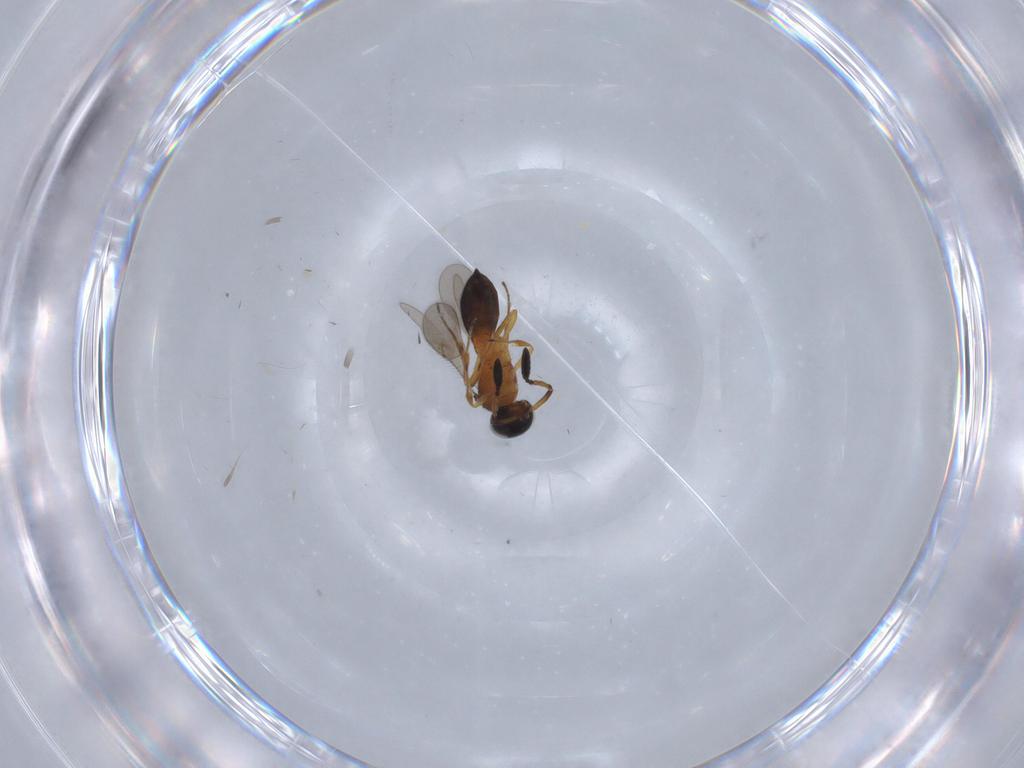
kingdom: Animalia
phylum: Arthropoda
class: Insecta
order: Hymenoptera
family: Scelionidae
